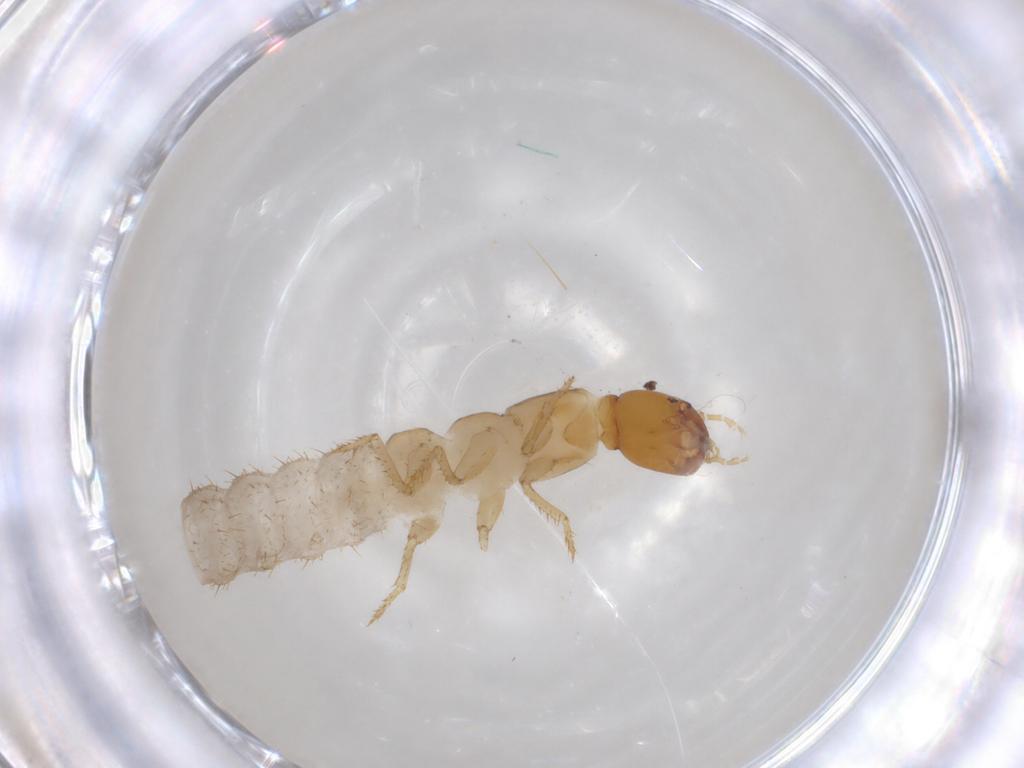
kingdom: Animalia
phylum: Arthropoda
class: Insecta
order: Coleoptera
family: Staphylinidae
